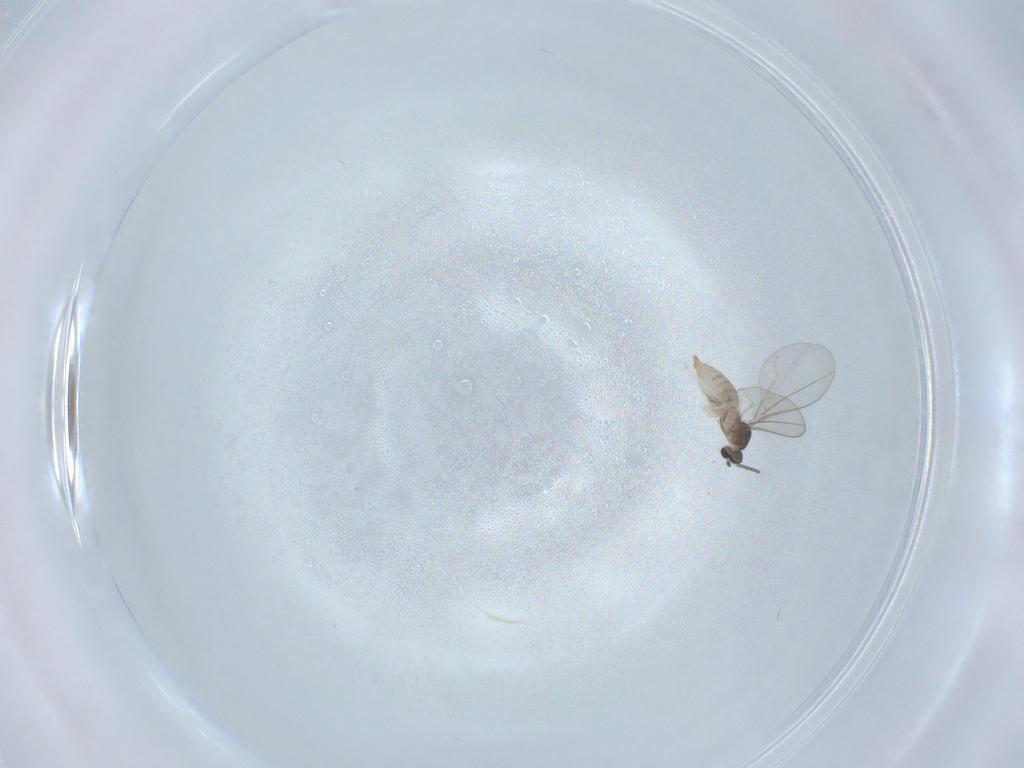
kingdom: Animalia
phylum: Arthropoda
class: Insecta
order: Diptera
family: Cecidomyiidae
